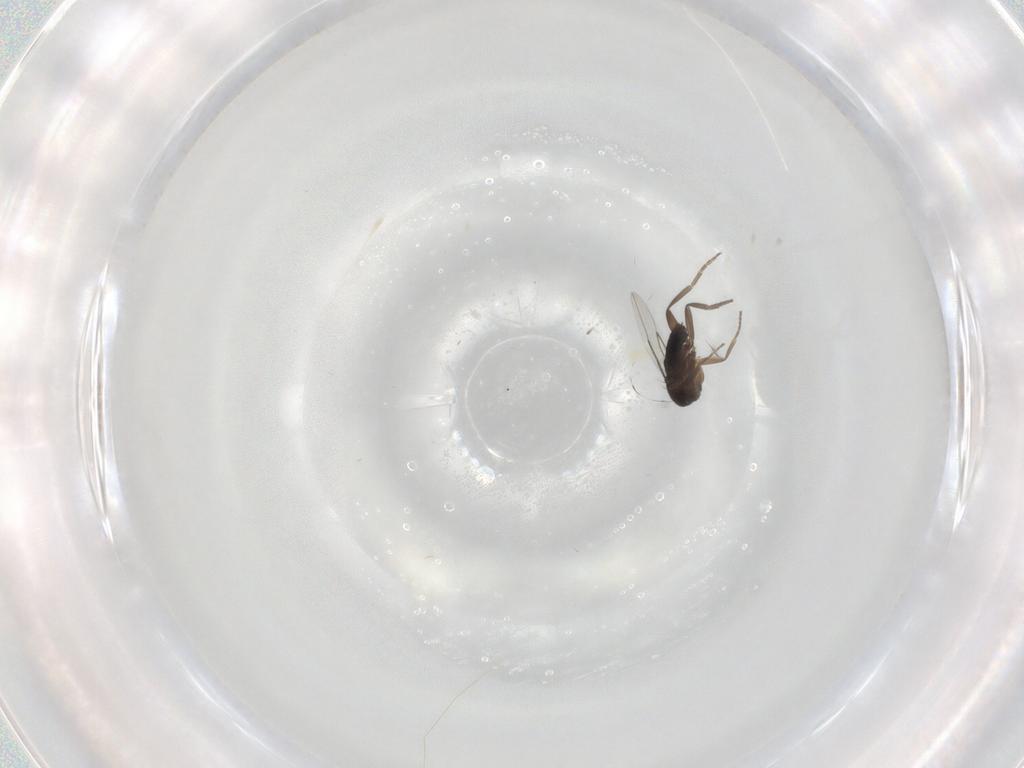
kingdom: Animalia
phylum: Arthropoda
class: Insecta
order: Diptera
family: Phoridae
